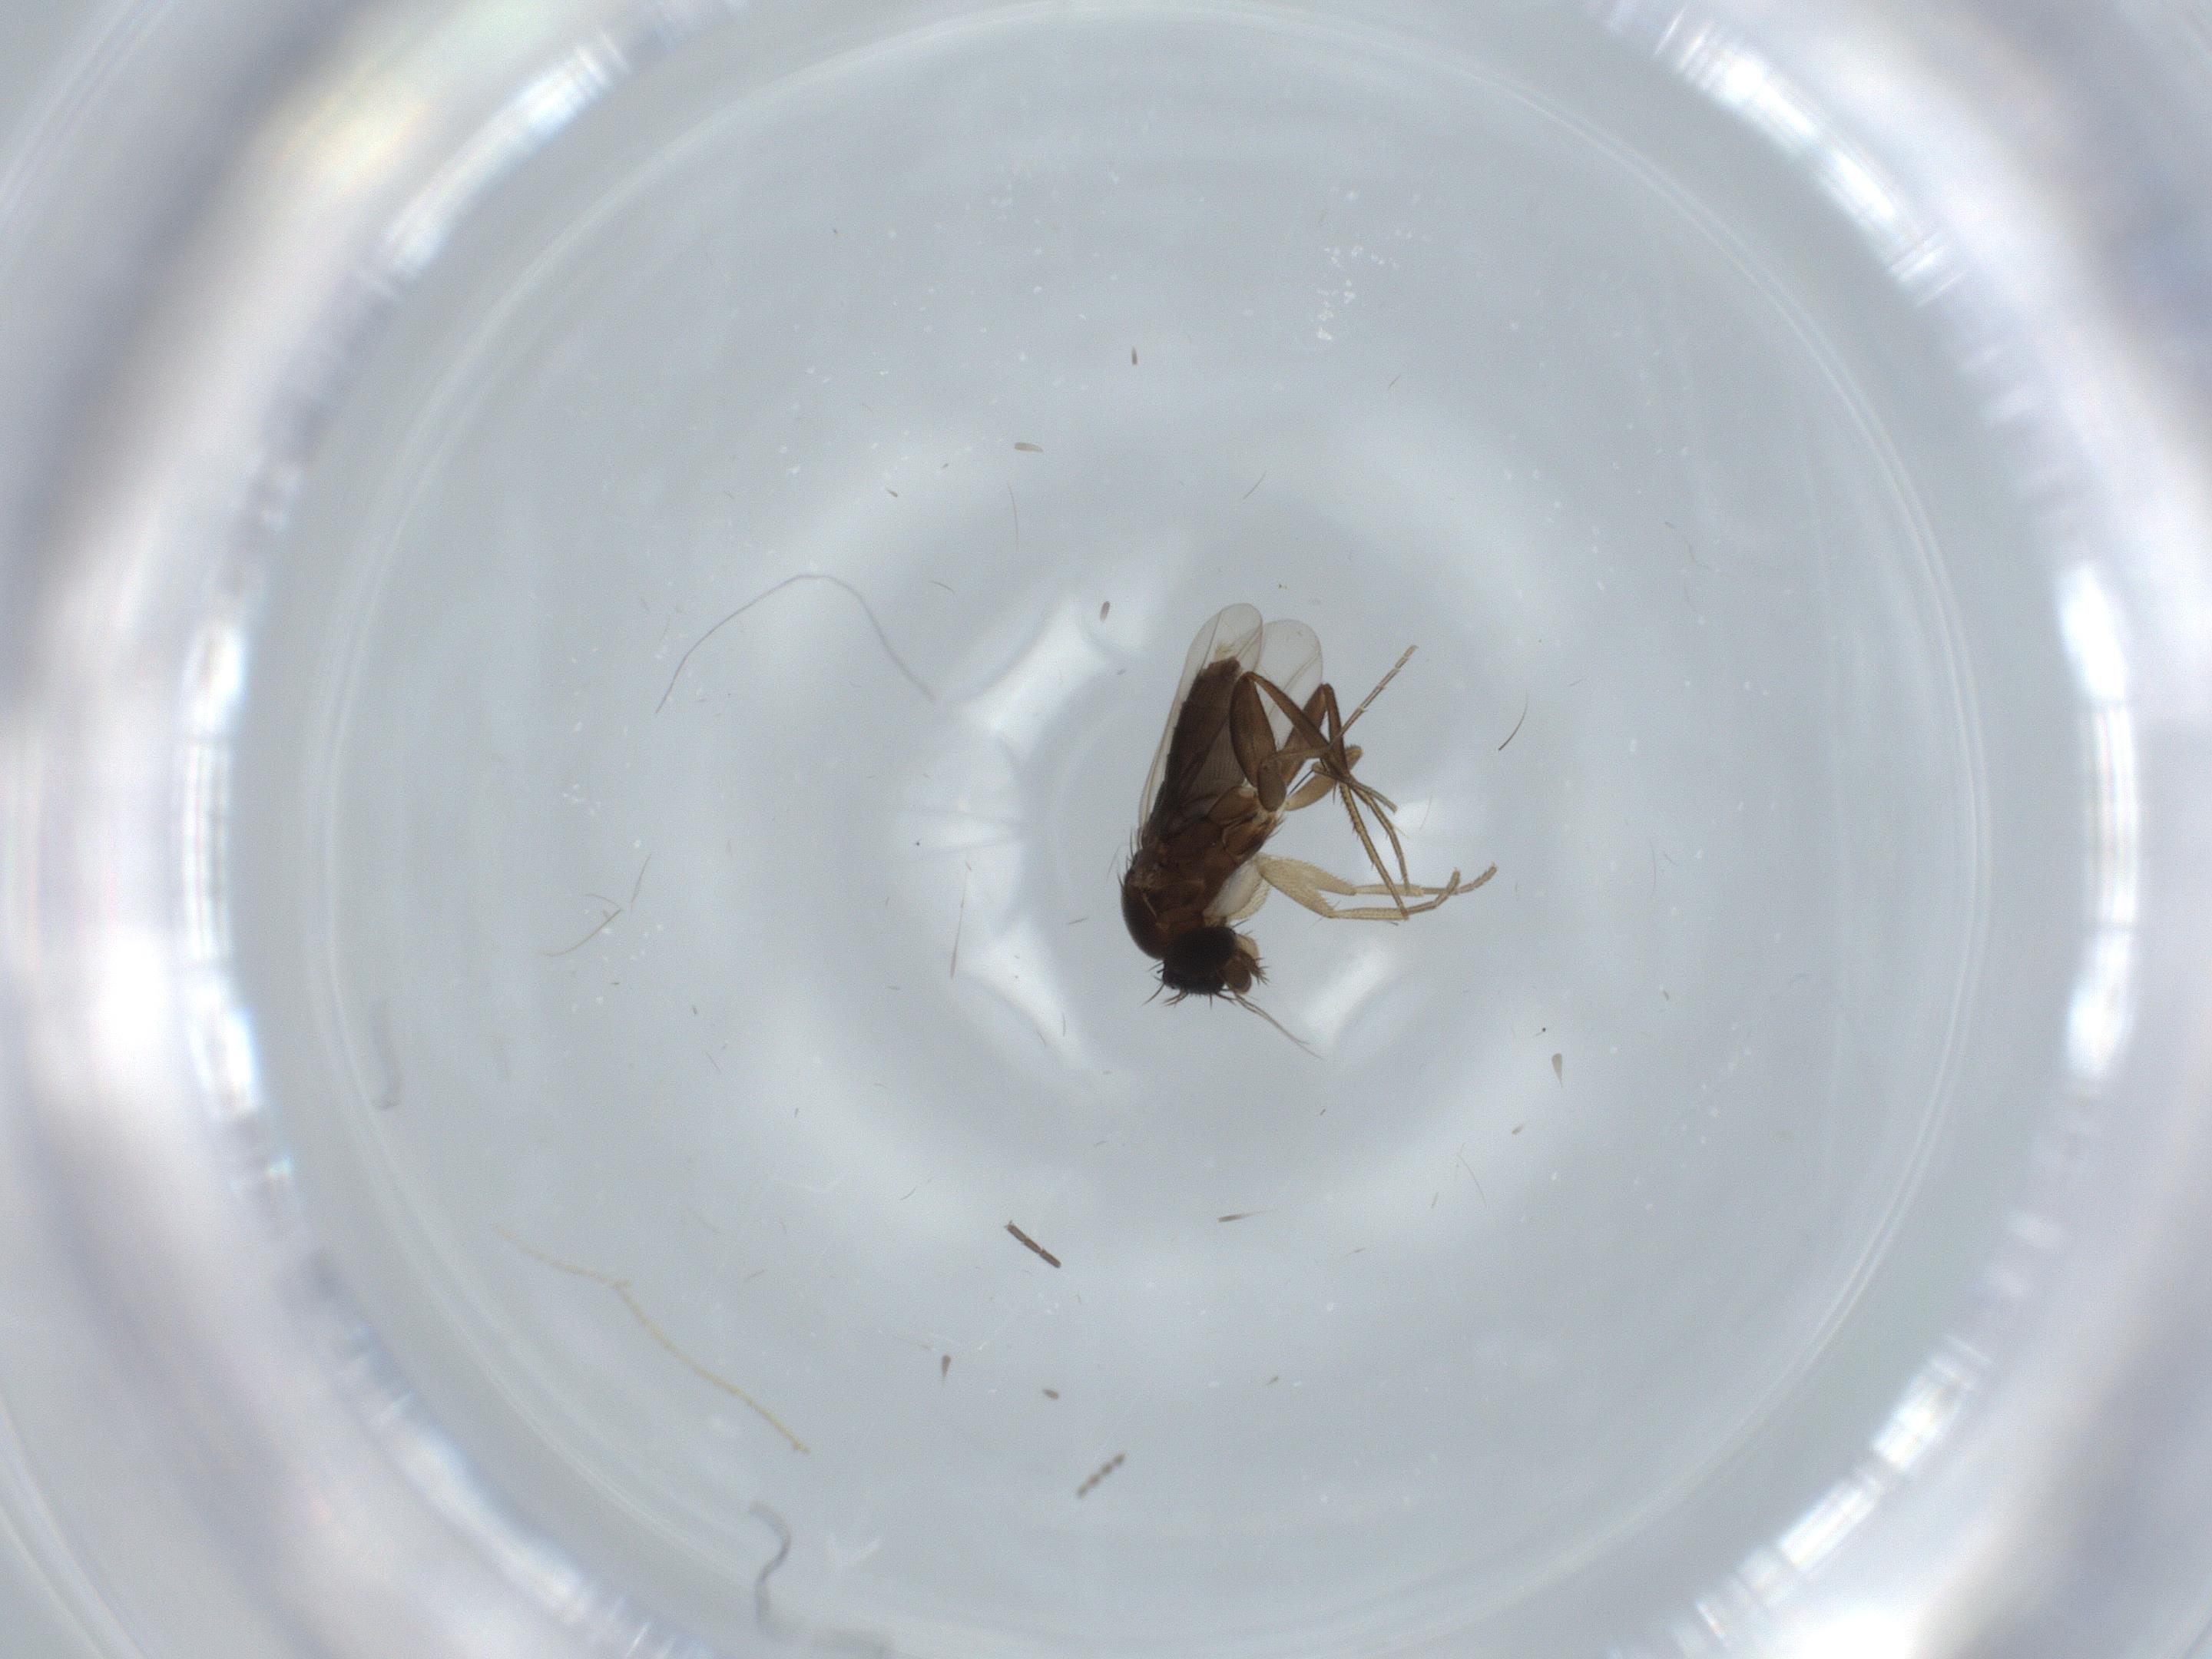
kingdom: Animalia
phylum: Arthropoda
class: Insecta
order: Diptera
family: Phoridae
